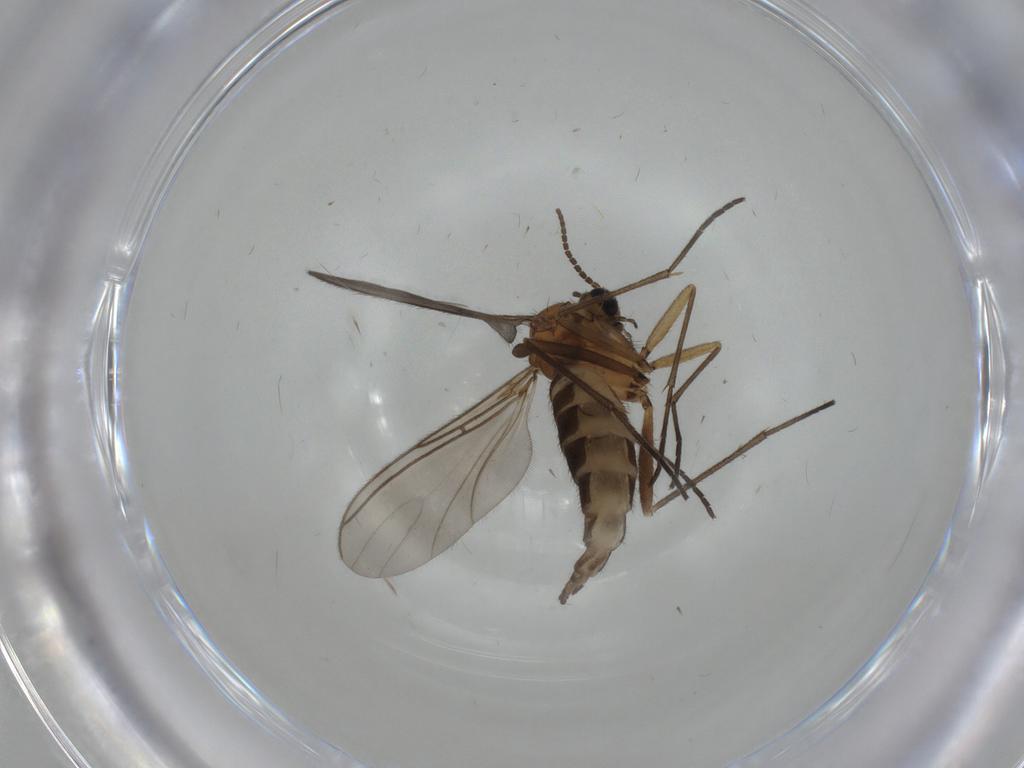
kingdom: Animalia
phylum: Arthropoda
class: Insecta
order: Diptera
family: Sciaridae
